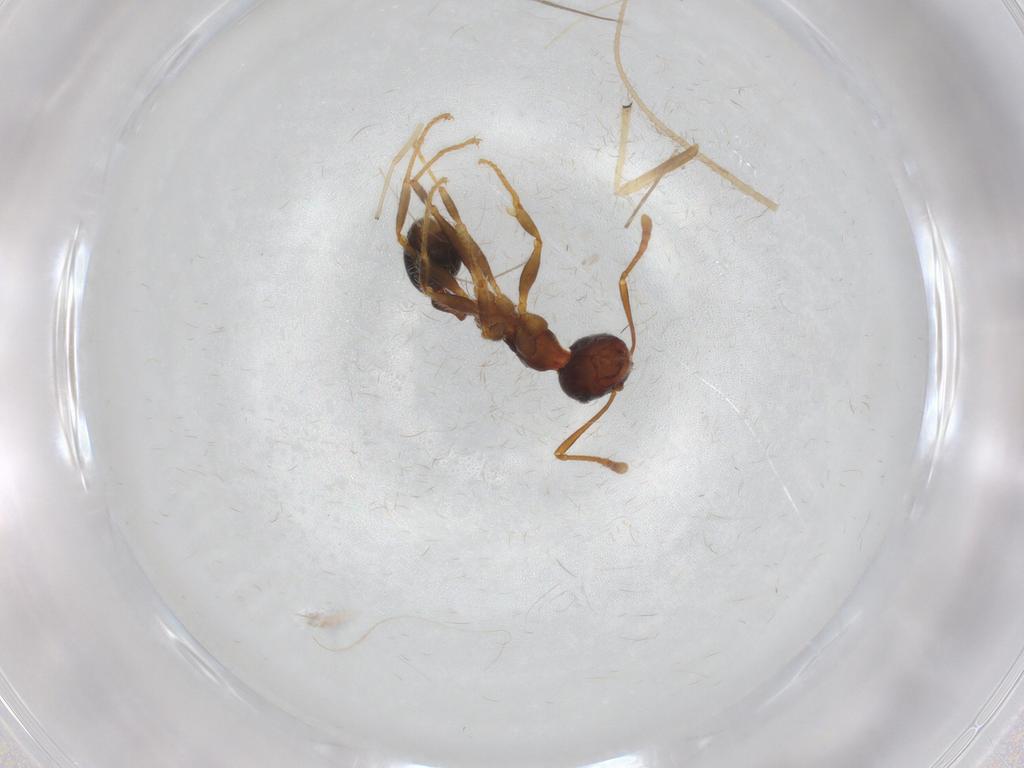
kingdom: Animalia
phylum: Arthropoda
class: Insecta
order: Hymenoptera
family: Figitidae
